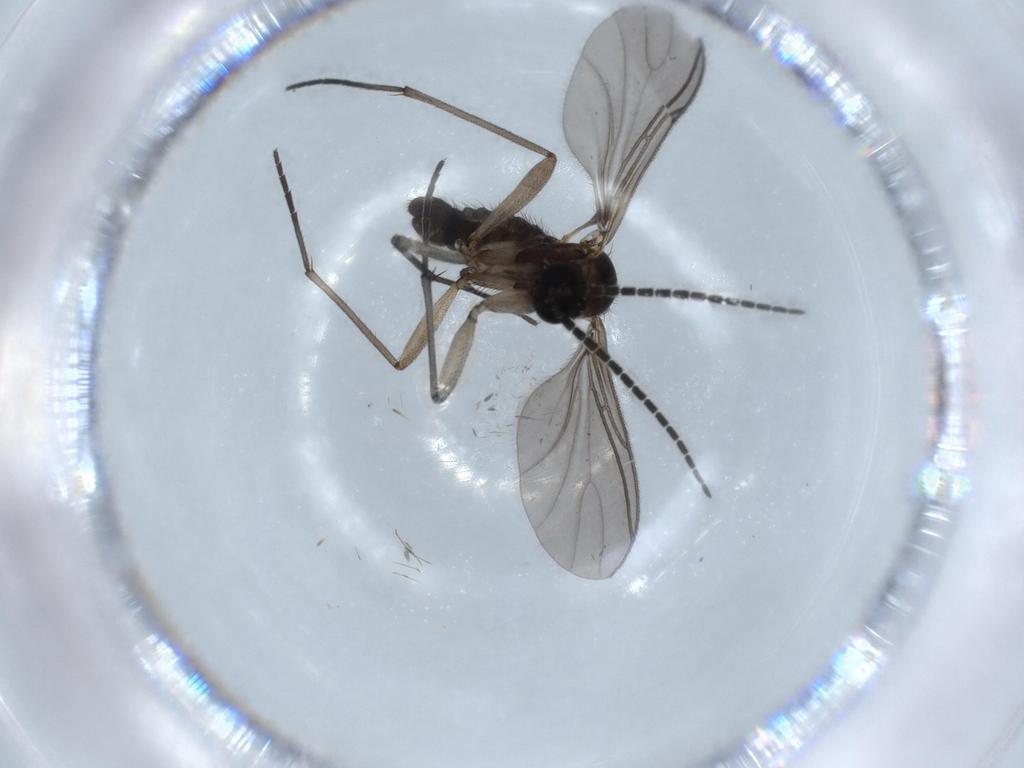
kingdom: Animalia
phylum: Arthropoda
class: Insecta
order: Diptera
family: Sciaridae
